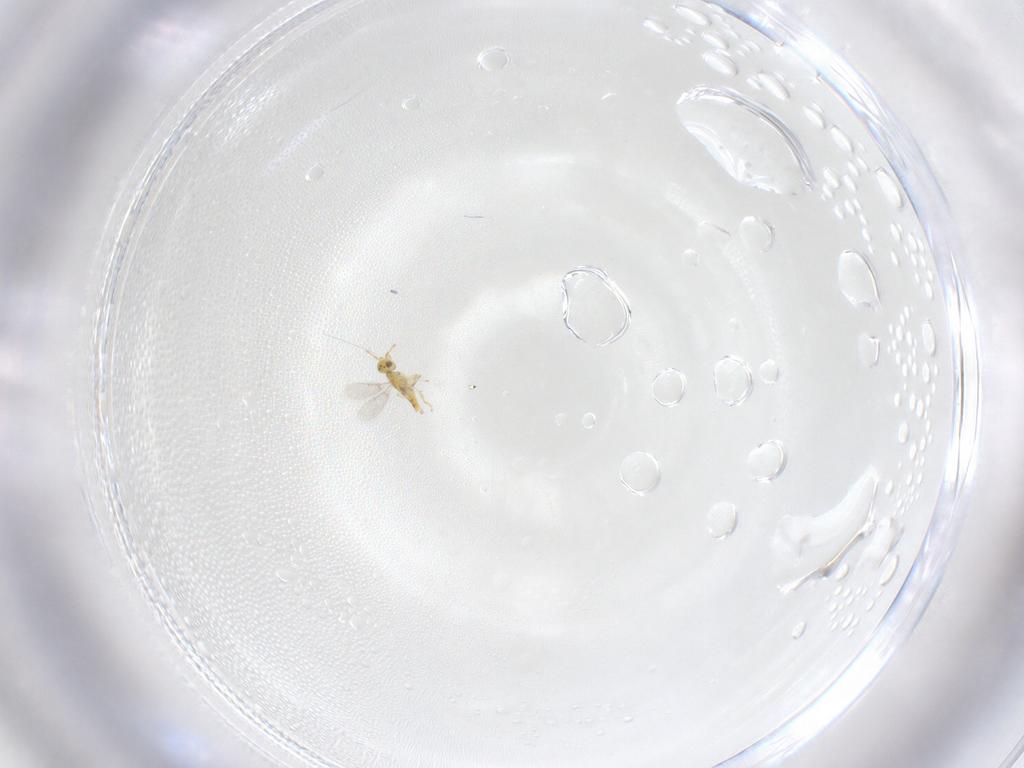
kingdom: Animalia
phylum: Arthropoda
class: Insecta
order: Hymenoptera
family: Aphelinidae
